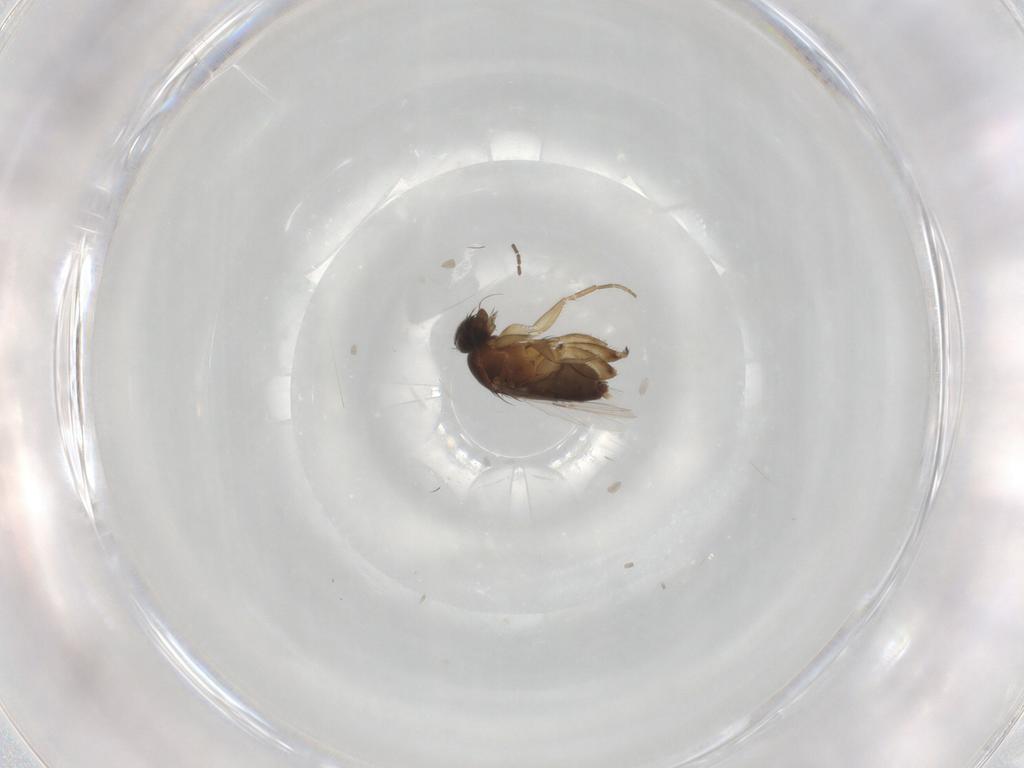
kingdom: Animalia
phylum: Arthropoda
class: Insecta
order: Diptera
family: Phoridae
